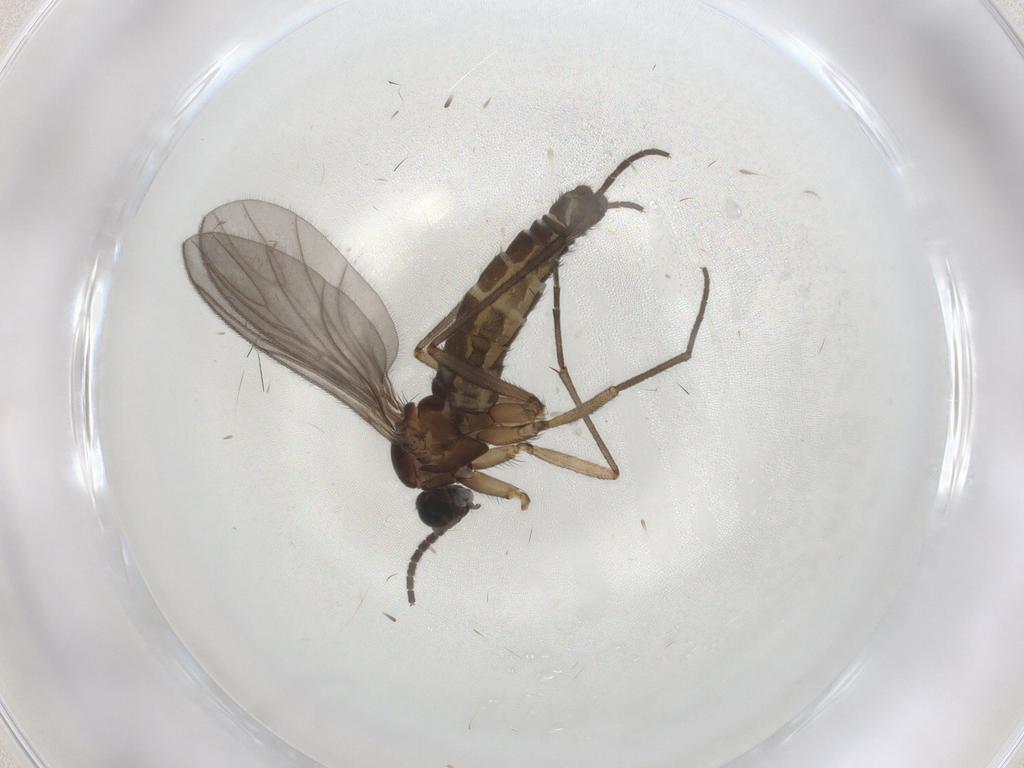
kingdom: Animalia
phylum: Arthropoda
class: Insecta
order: Diptera
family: Sciaridae
